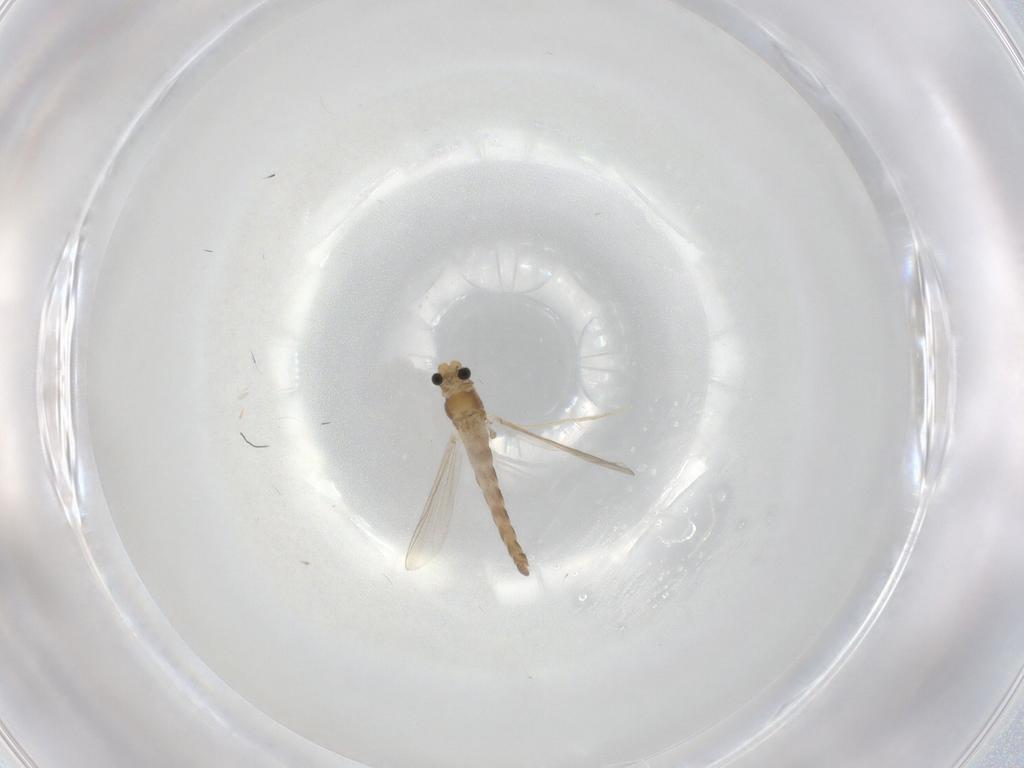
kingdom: Animalia
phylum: Arthropoda
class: Insecta
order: Diptera
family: Chironomidae
